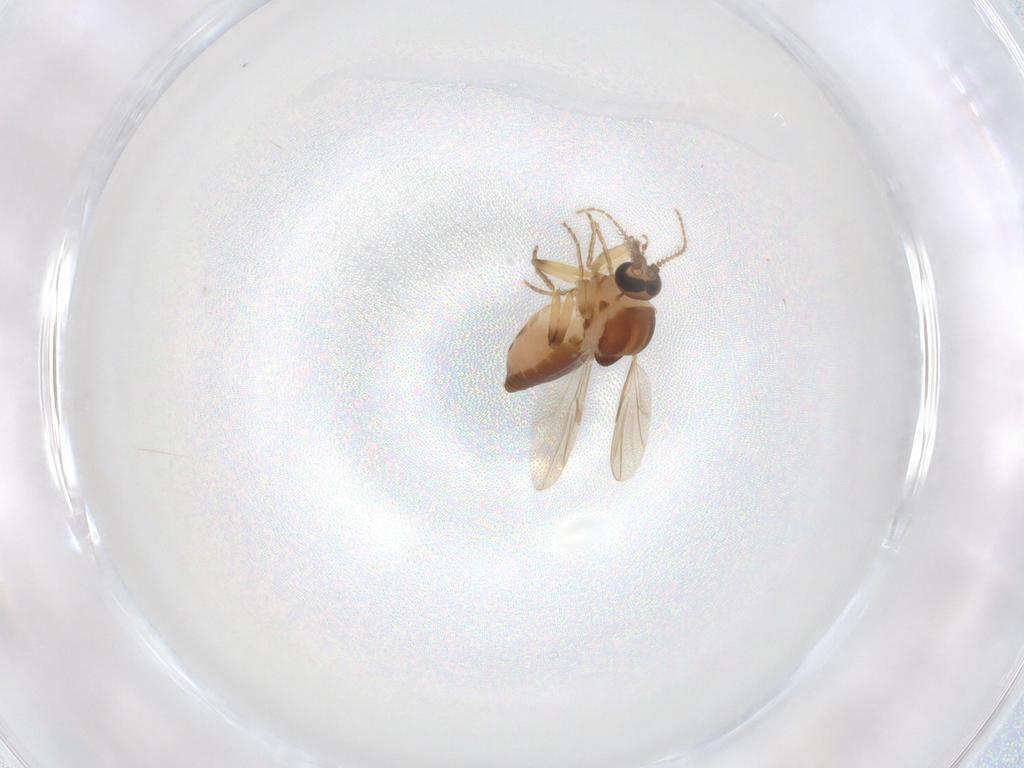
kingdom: Animalia
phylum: Arthropoda
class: Insecta
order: Diptera
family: Ceratopogonidae
